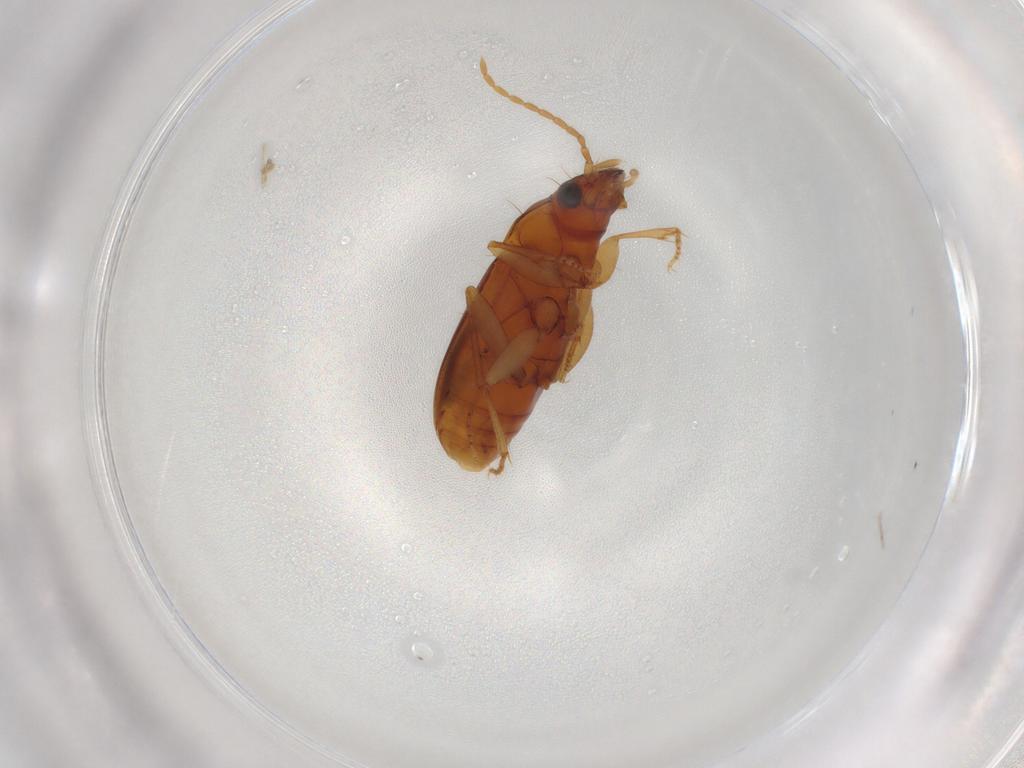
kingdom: Animalia
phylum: Arthropoda
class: Insecta
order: Coleoptera
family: Carabidae
